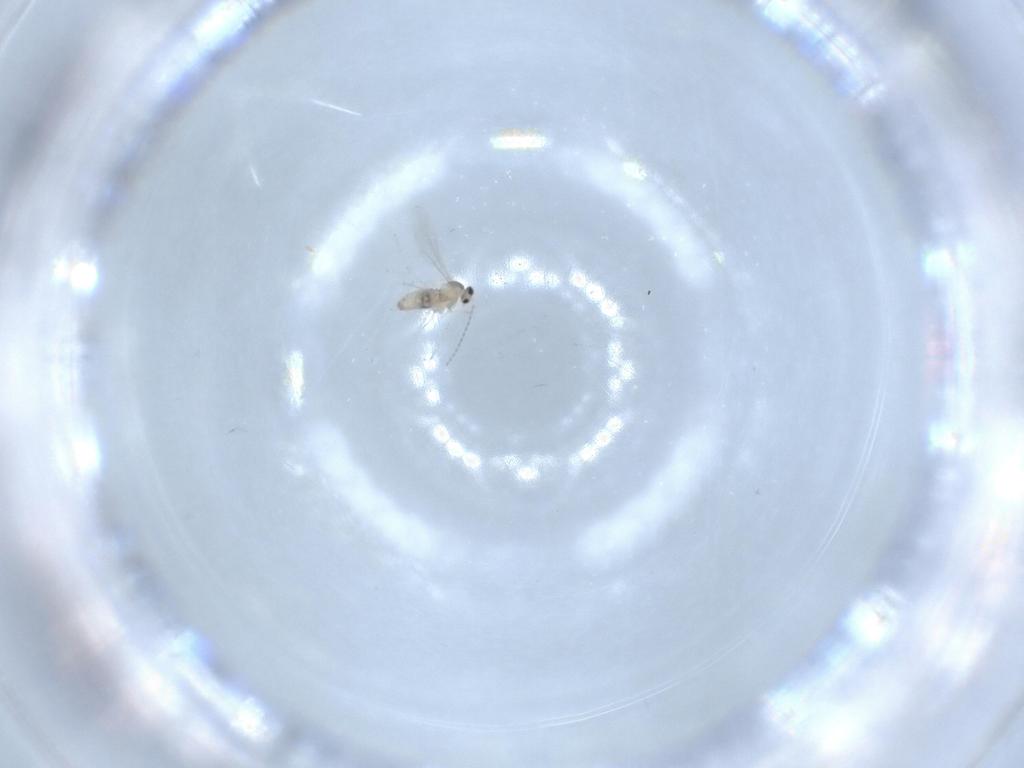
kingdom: Animalia
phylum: Arthropoda
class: Insecta
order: Diptera
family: Cecidomyiidae
